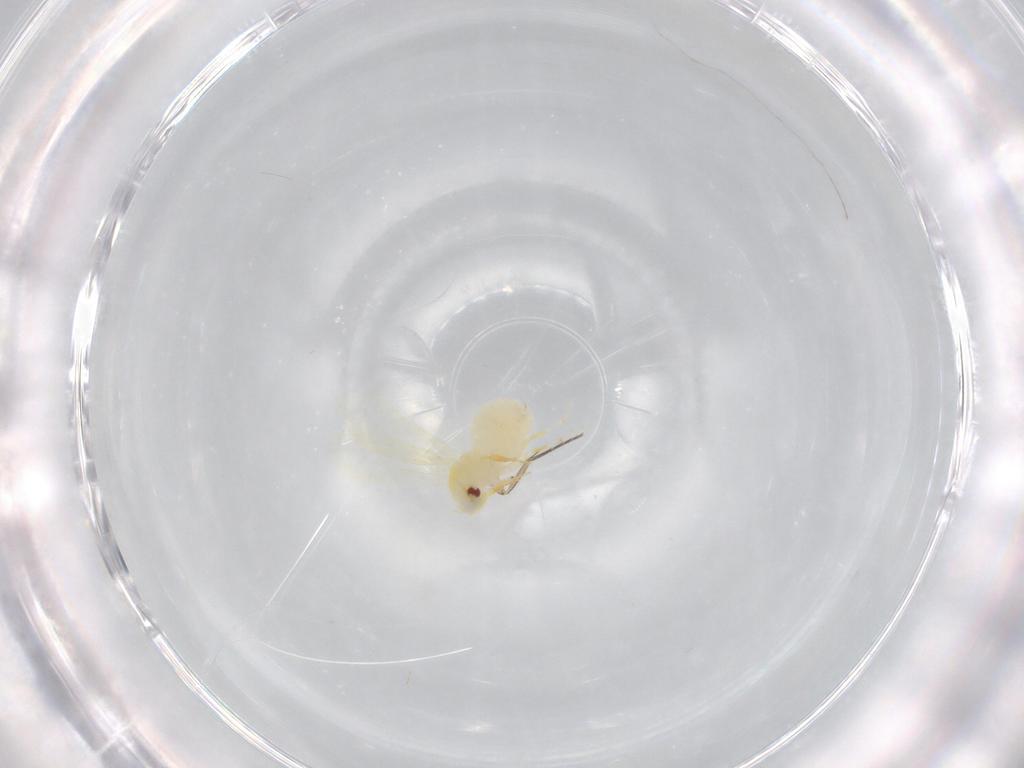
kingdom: Animalia
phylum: Arthropoda
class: Insecta
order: Hemiptera
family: Aleyrodidae
